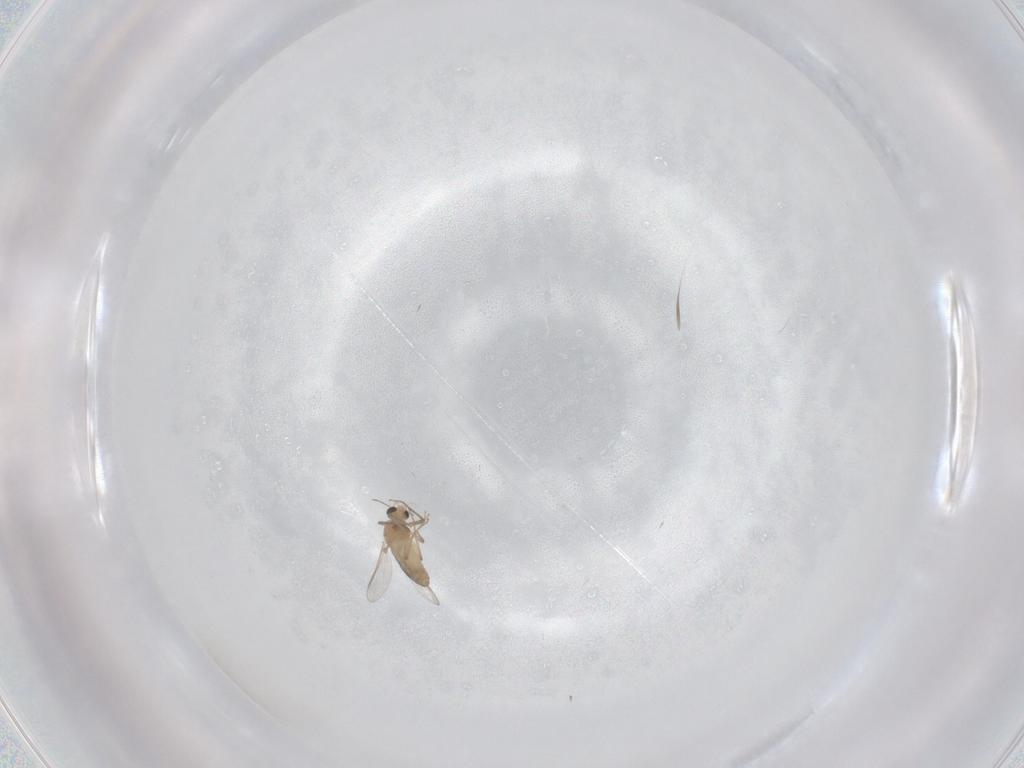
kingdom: Animalia
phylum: Arthropoda
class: Insecta
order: Diptera
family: Chironomidae
